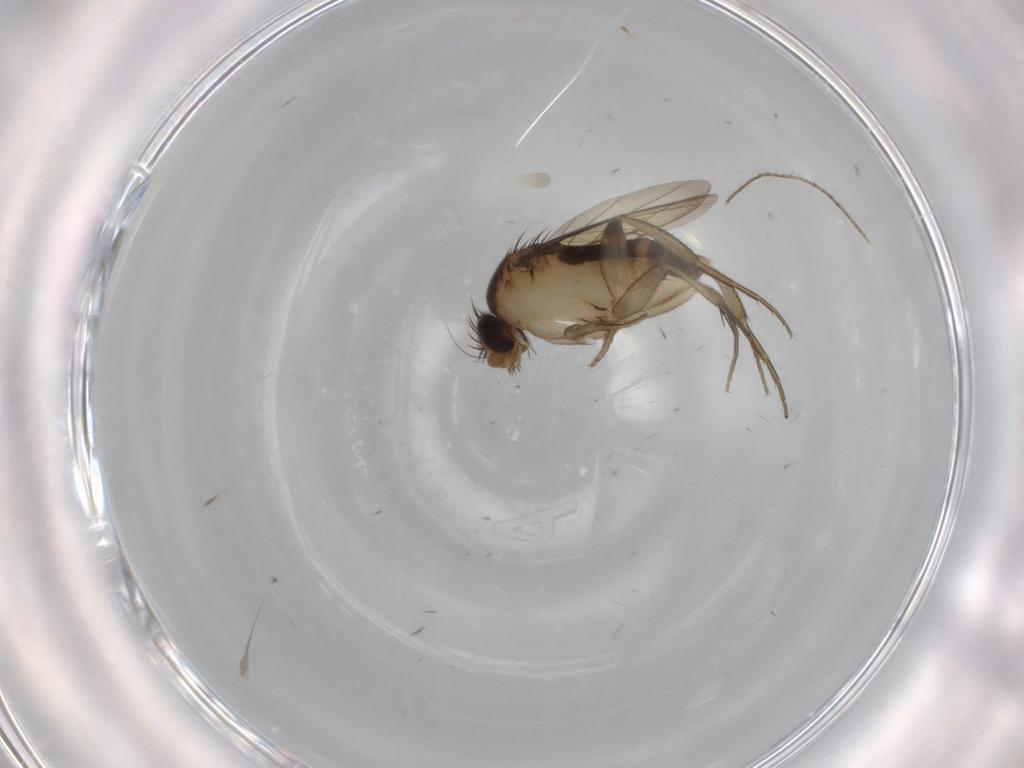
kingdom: Animalia
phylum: Arthropoda
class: Insecta
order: Diptera
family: Phoridae
